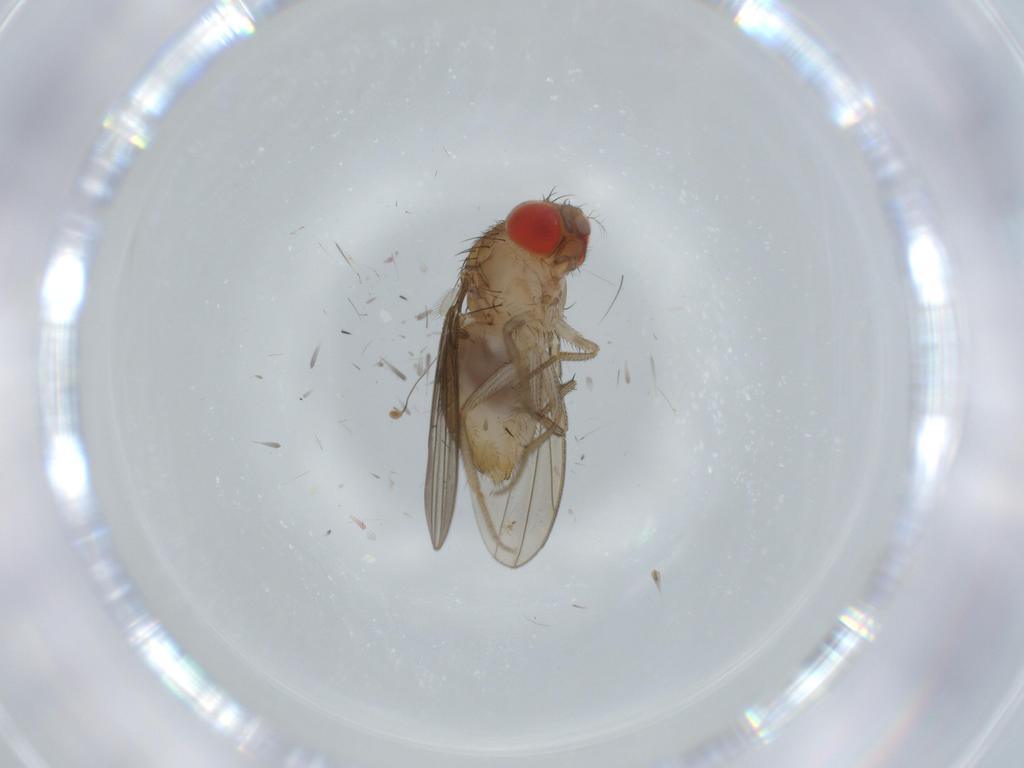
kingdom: Animalia
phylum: Arthropoda
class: Insecta
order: Diptera
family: Drosophilidae
